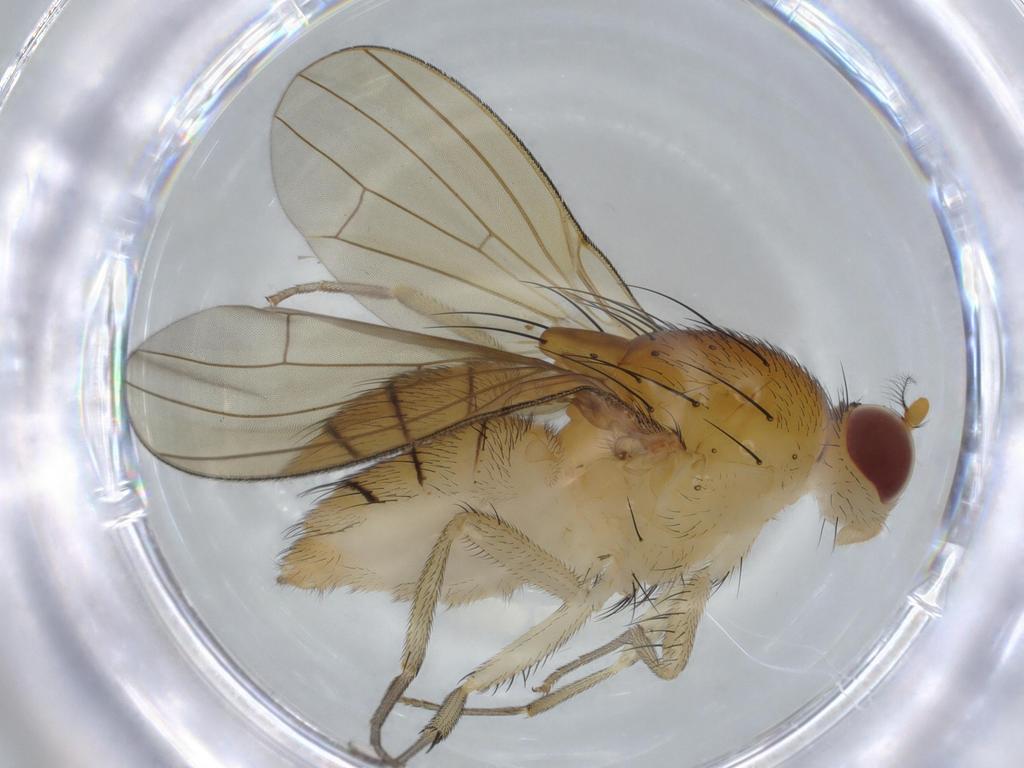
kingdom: Animalia
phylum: Arthropoda
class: Insecta
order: Diptera
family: Chironomidae
